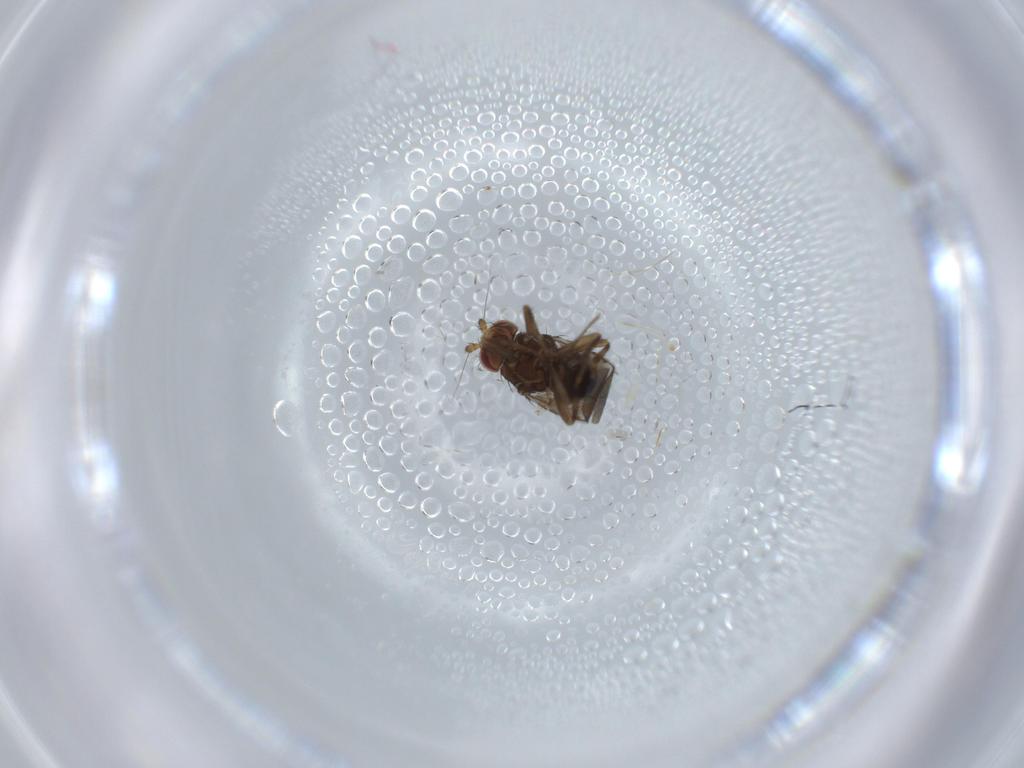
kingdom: Animalia
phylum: Arthropoda
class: Insecta
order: Diptera
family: Sphaeroceridae
